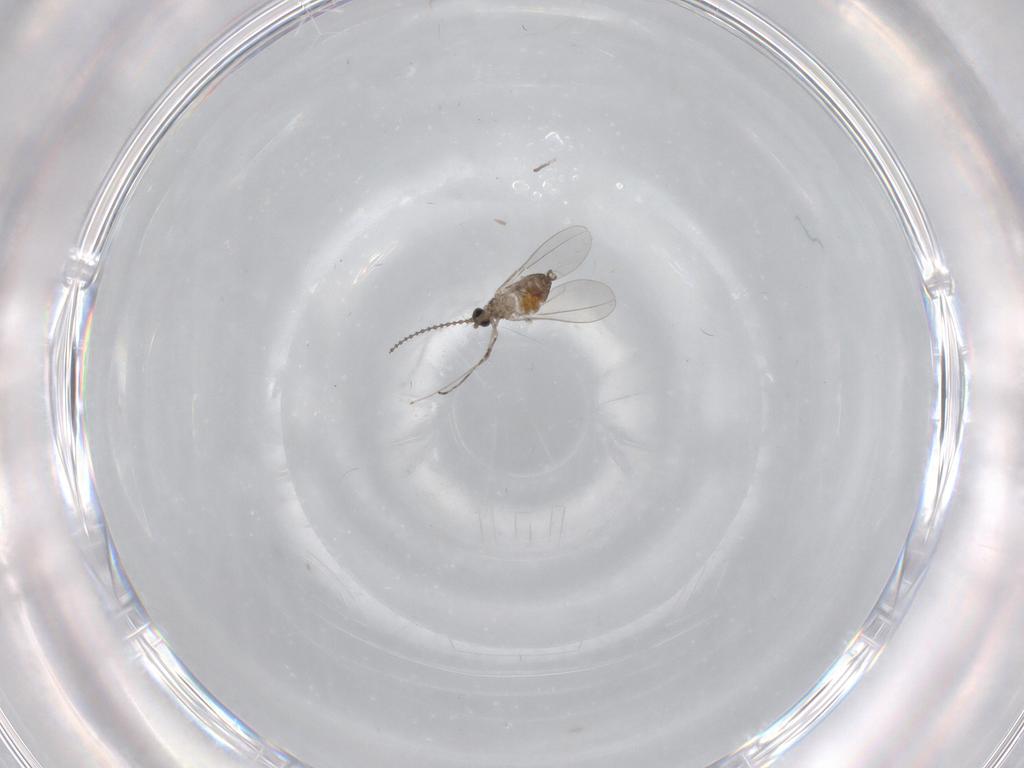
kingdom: Animalia
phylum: Arthropoda
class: Insecta
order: Diptera
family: Cecidomyiidae
